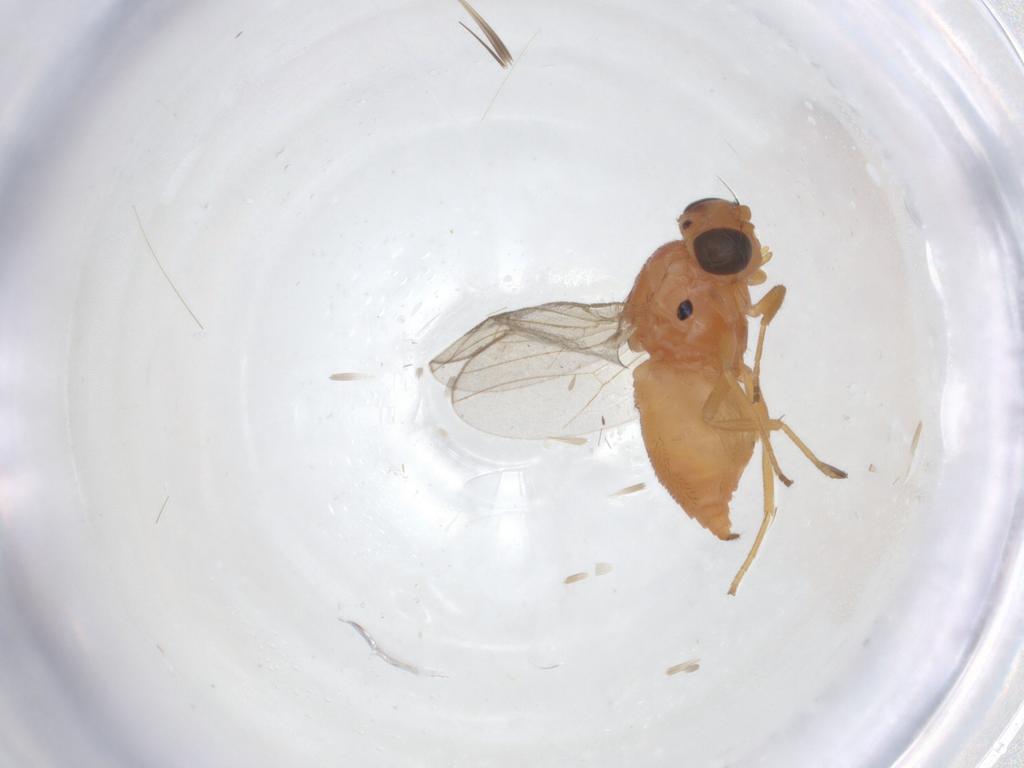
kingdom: Animalia
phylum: Arthropoda
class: Insecta
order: Diptera
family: Chloropidae
